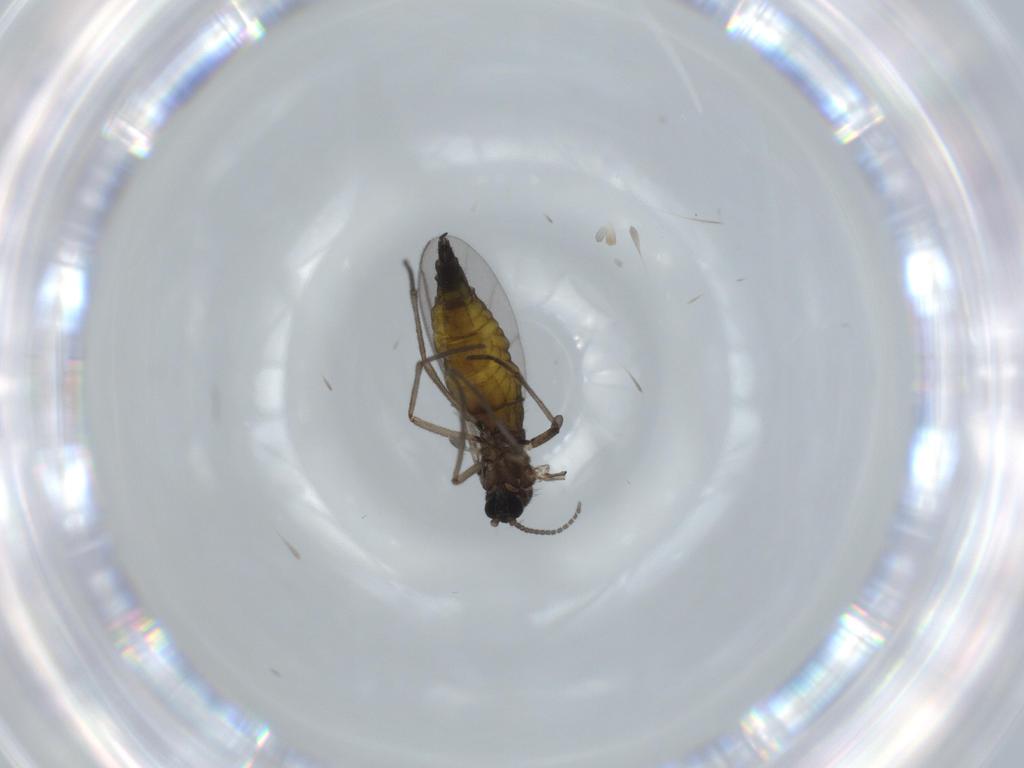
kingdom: Animalia
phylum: Arthropoda
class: Insecta
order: Diptera
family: Sciaridae
